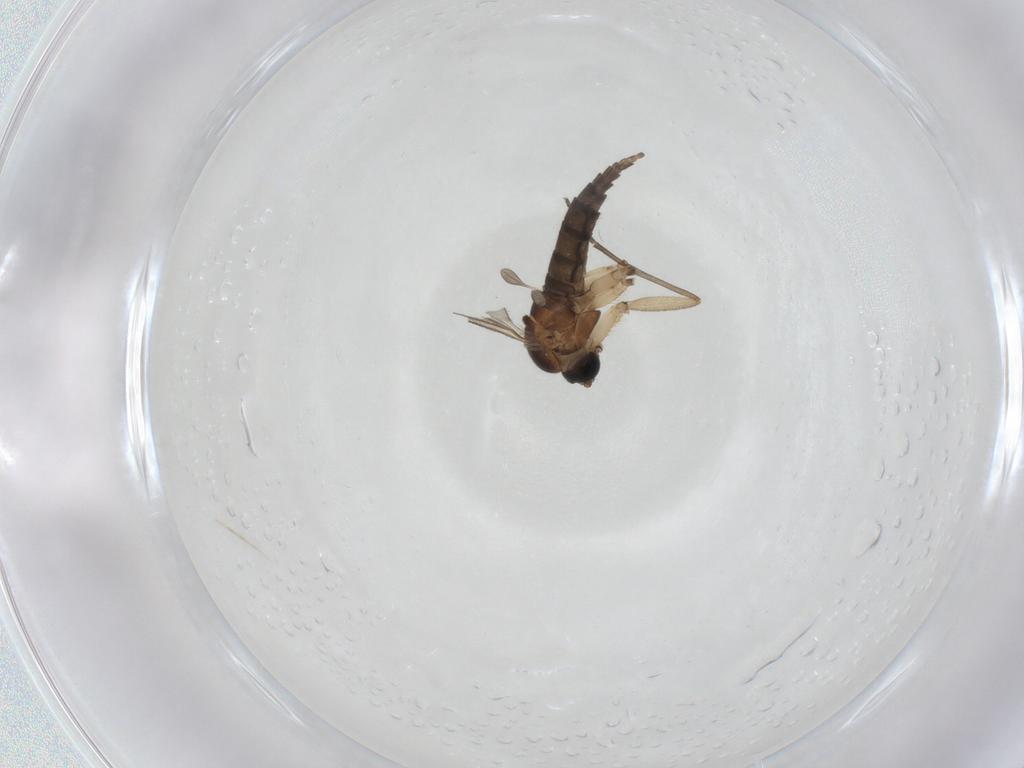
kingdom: Animalia
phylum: Arthropoda
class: Insecta
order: Diptera
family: Sciaridae
